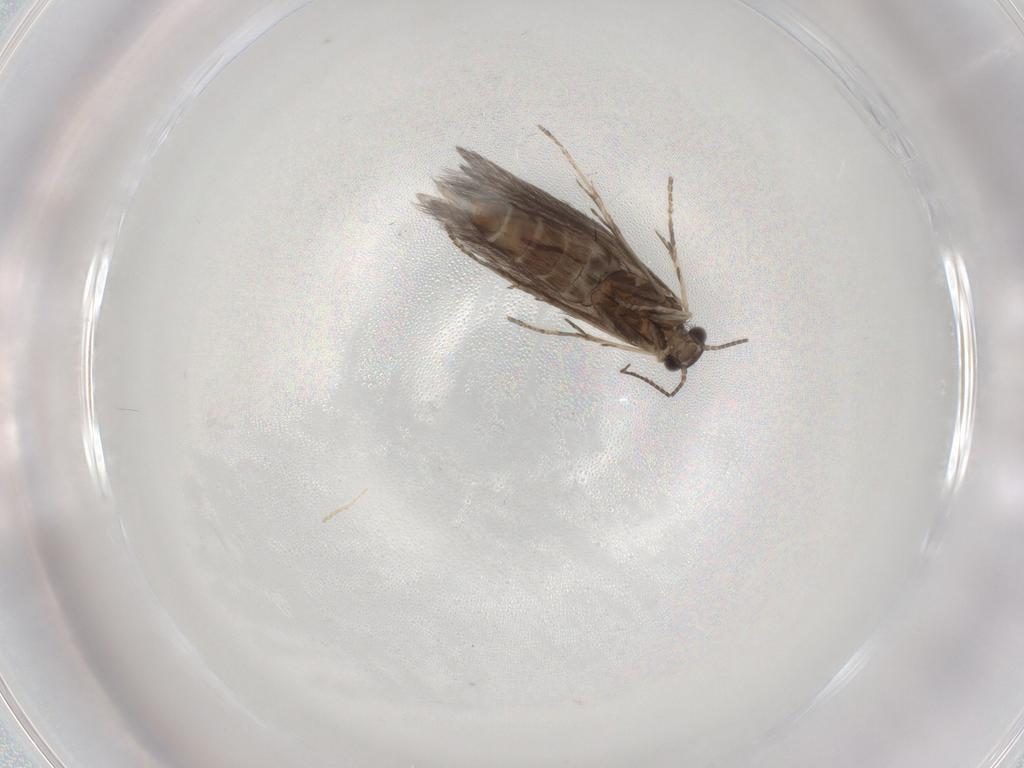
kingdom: Animalia
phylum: Arthropoda
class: Insecta
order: Trichoptera
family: Hydroptilidae
